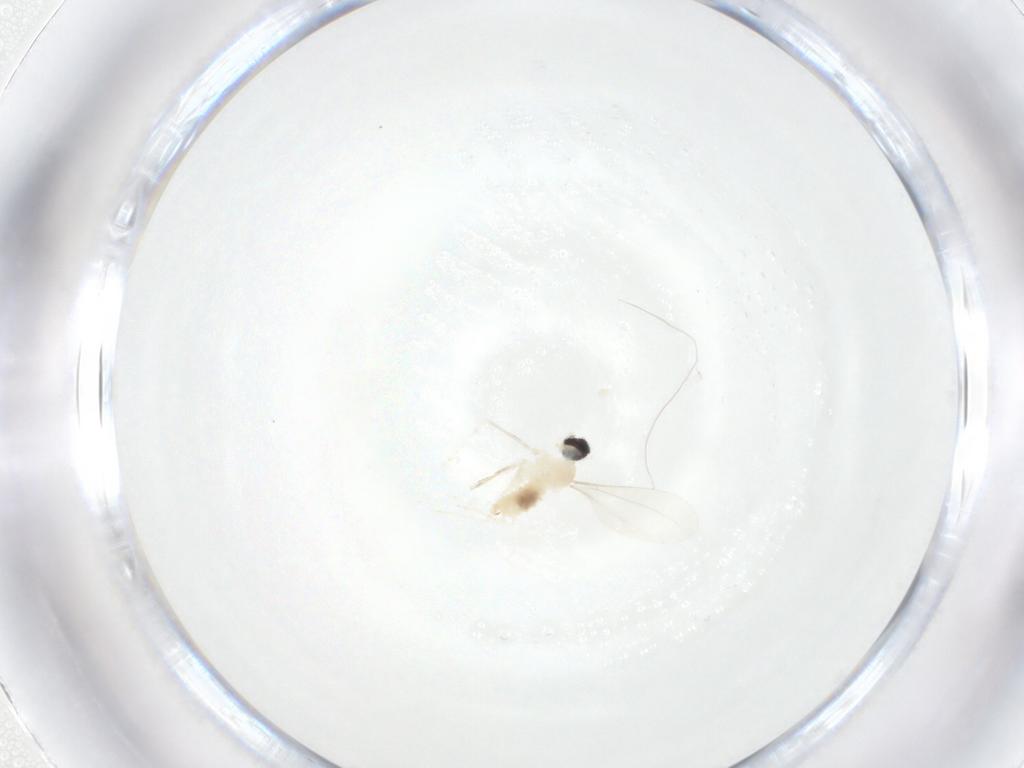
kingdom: Animalia
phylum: Arthropoda
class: Insecta
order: Diptera
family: Cecidomyiidae
